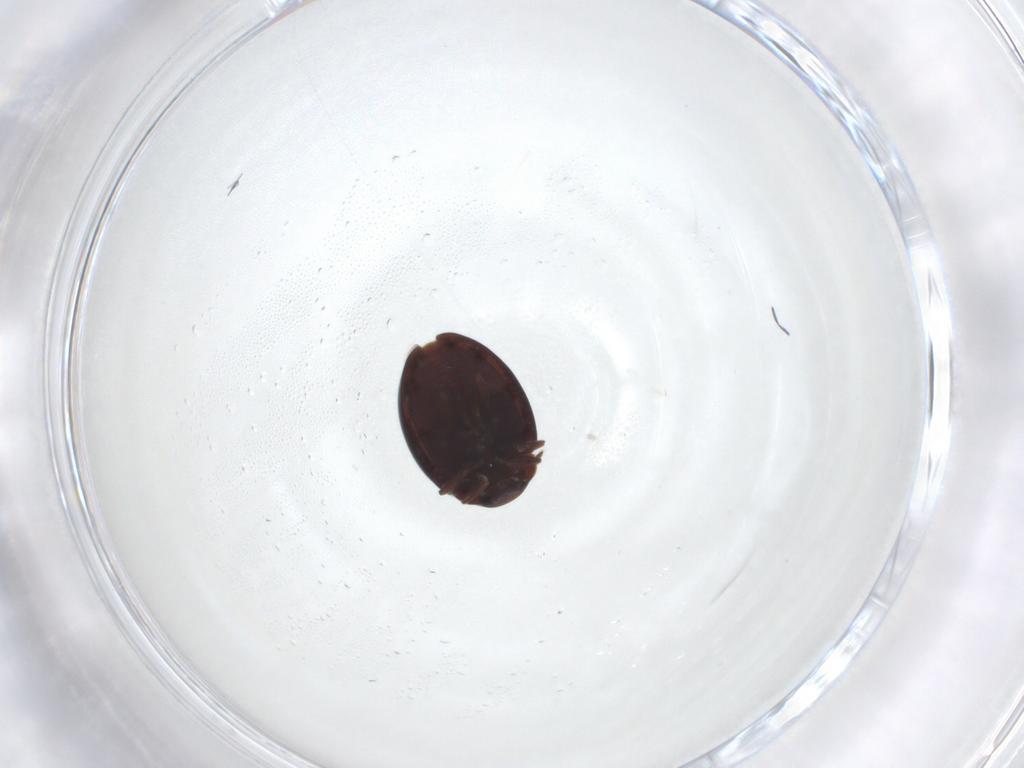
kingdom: Animalia
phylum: Arthropoda
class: Insecta
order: Coleoptera
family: Coccinellidae
